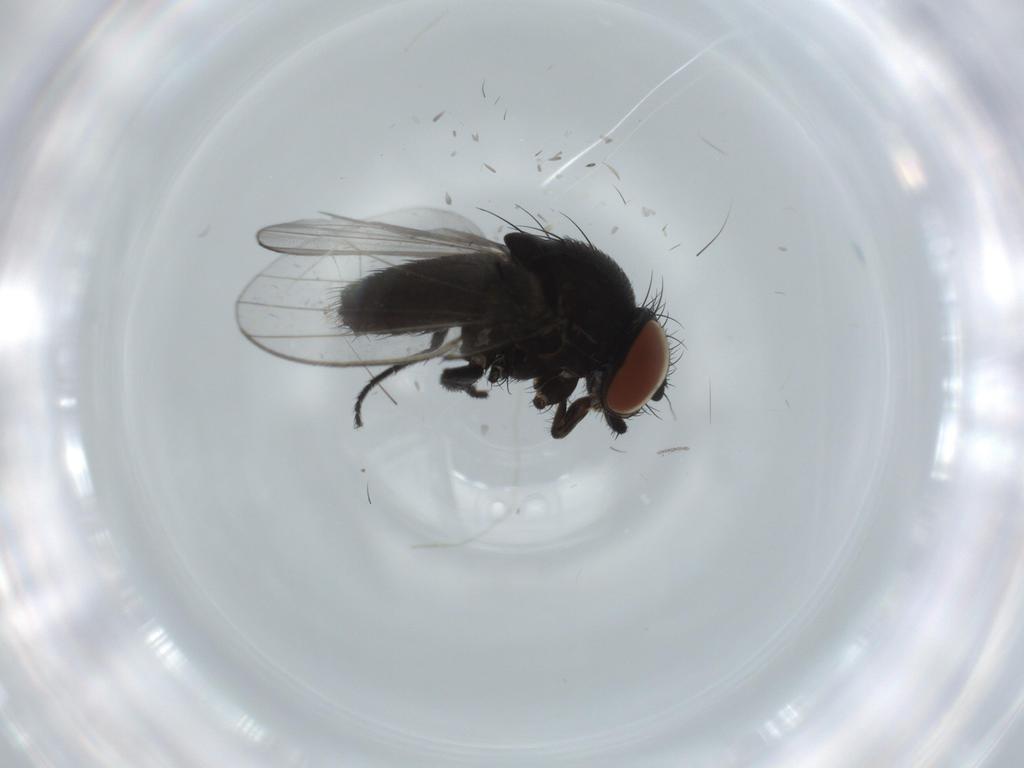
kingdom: Animalia
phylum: Arthropoda
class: Insecta
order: Diptera
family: Milichiidae
